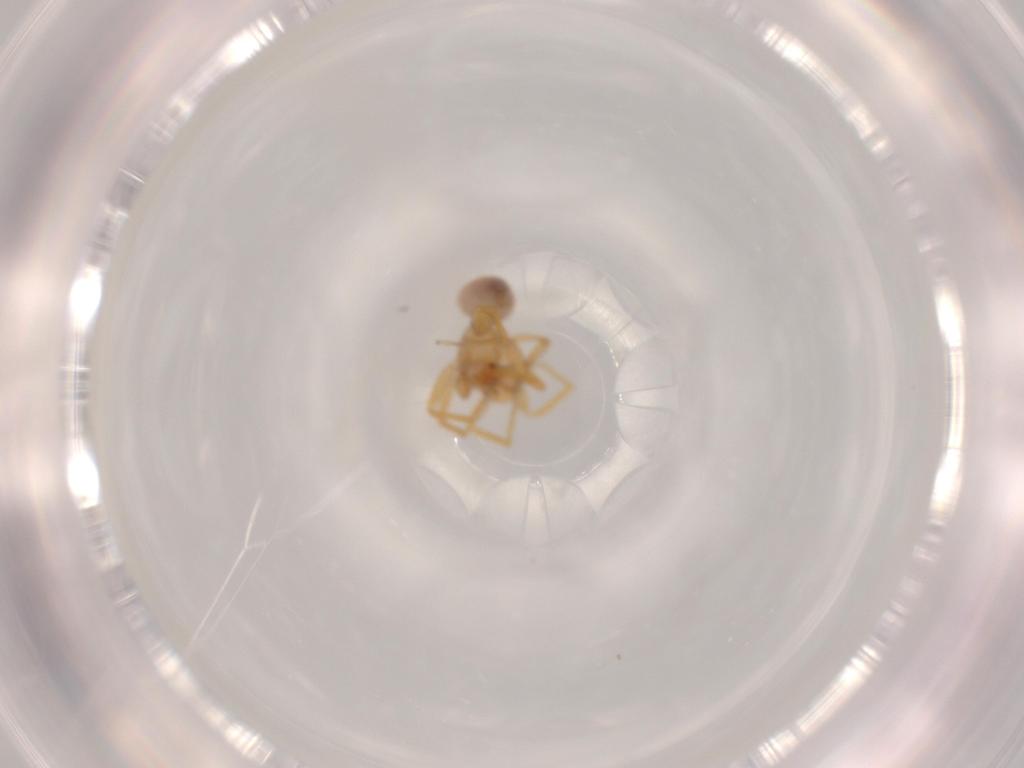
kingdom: Animalia
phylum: Arthropoda
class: Arachnida
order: Araneae
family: Oonopidae
